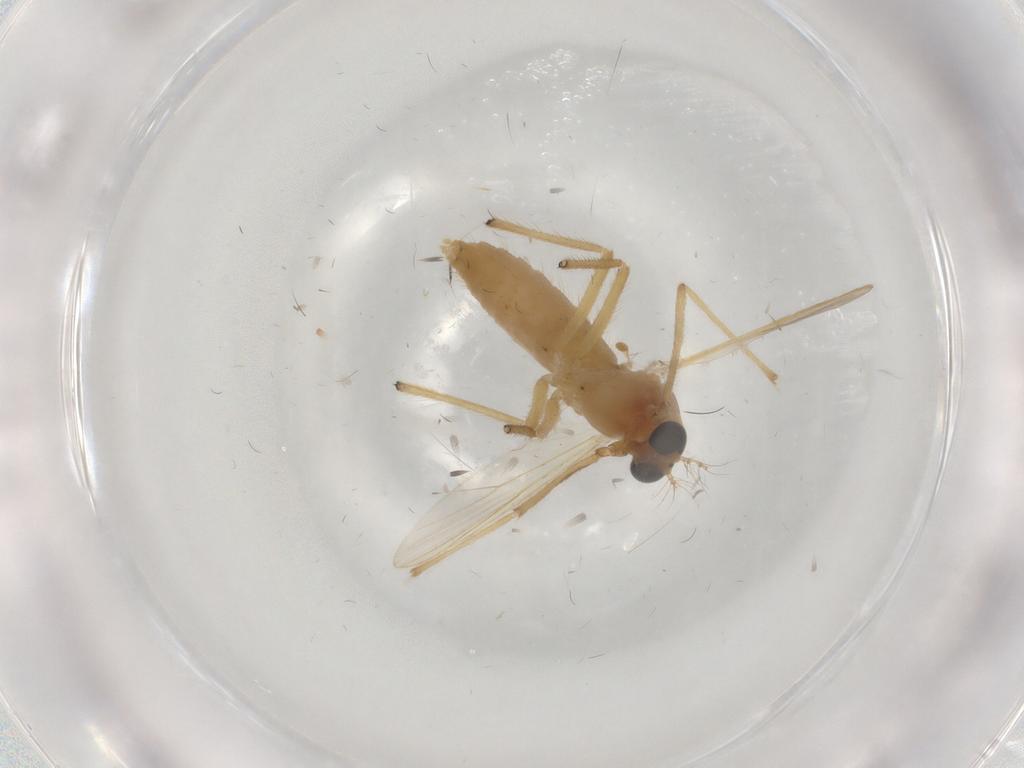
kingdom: Animalia
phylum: Arthropoda
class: Insecta
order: Diptera
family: Chironomidae
